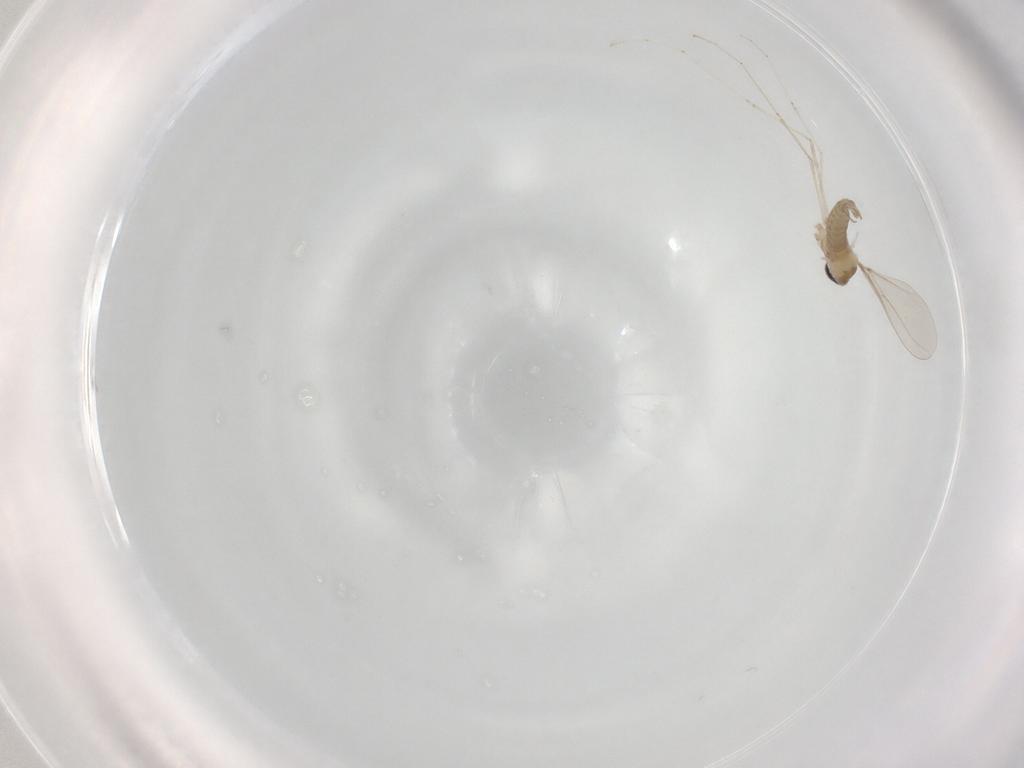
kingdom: Animalia
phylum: Arthropoda
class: Insecta
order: Diptera
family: Cecidomyiidae
